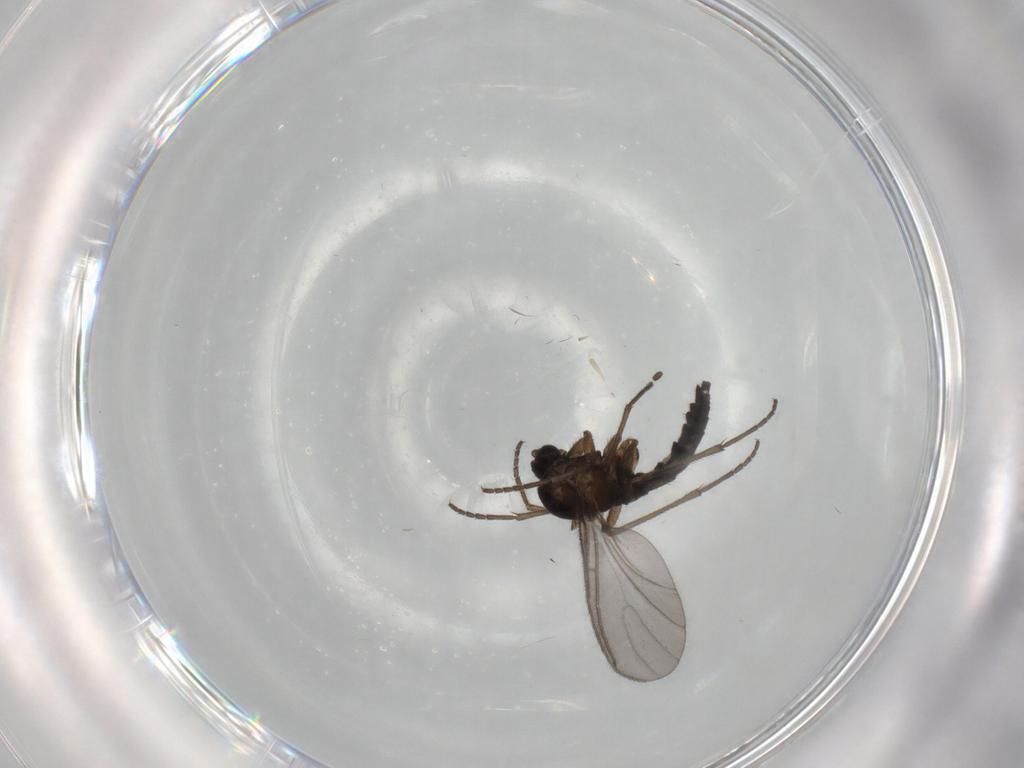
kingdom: Animalia
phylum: Arthropoda
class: Insecta
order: Diptera
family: Sciaridae
